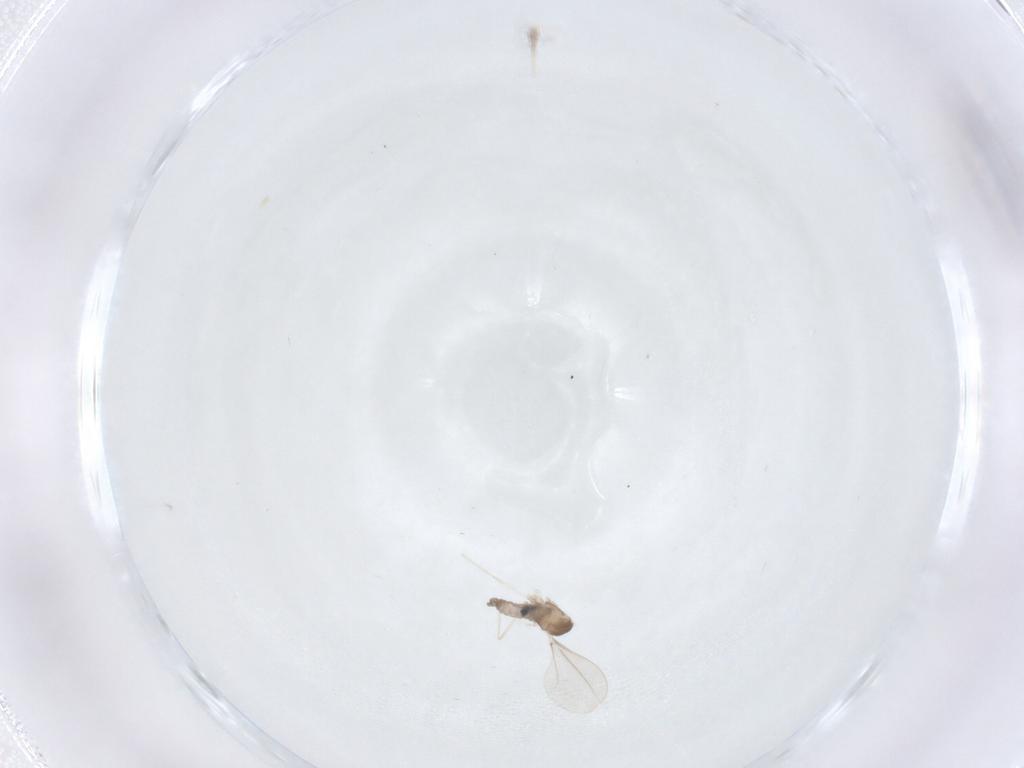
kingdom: Animalia
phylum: Arthropoda
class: Insecta
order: Diptera
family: Cecidomyiidae
